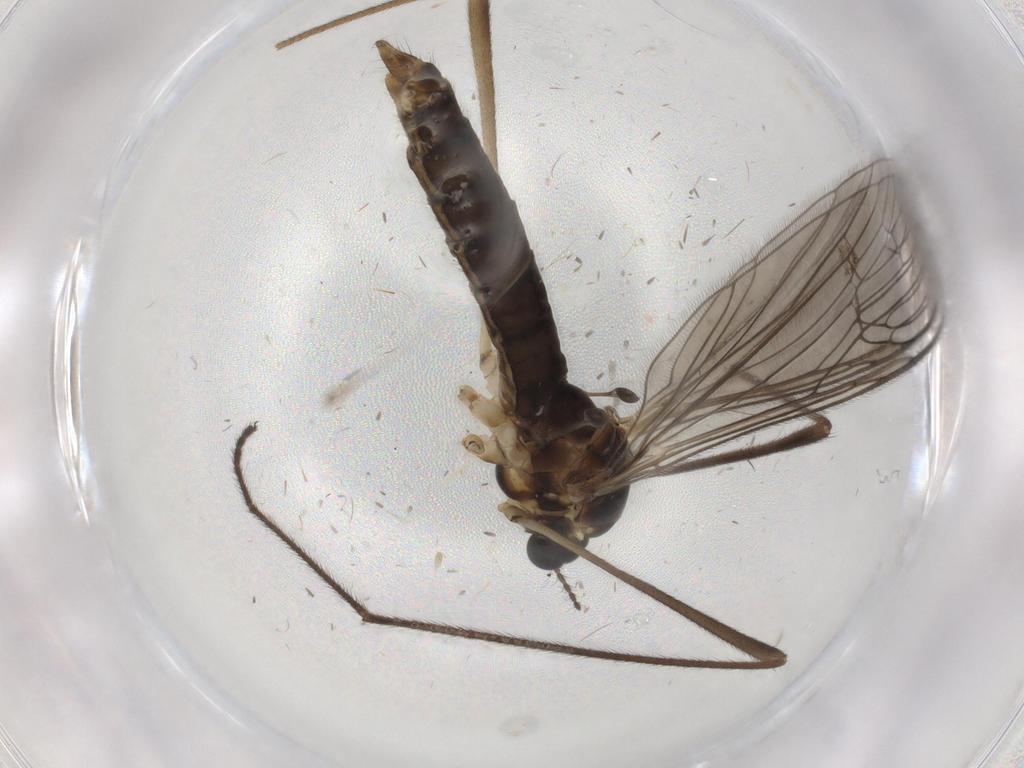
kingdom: Animalia
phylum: Arthropoda
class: Insecta
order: Diptera
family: Limoniidae
